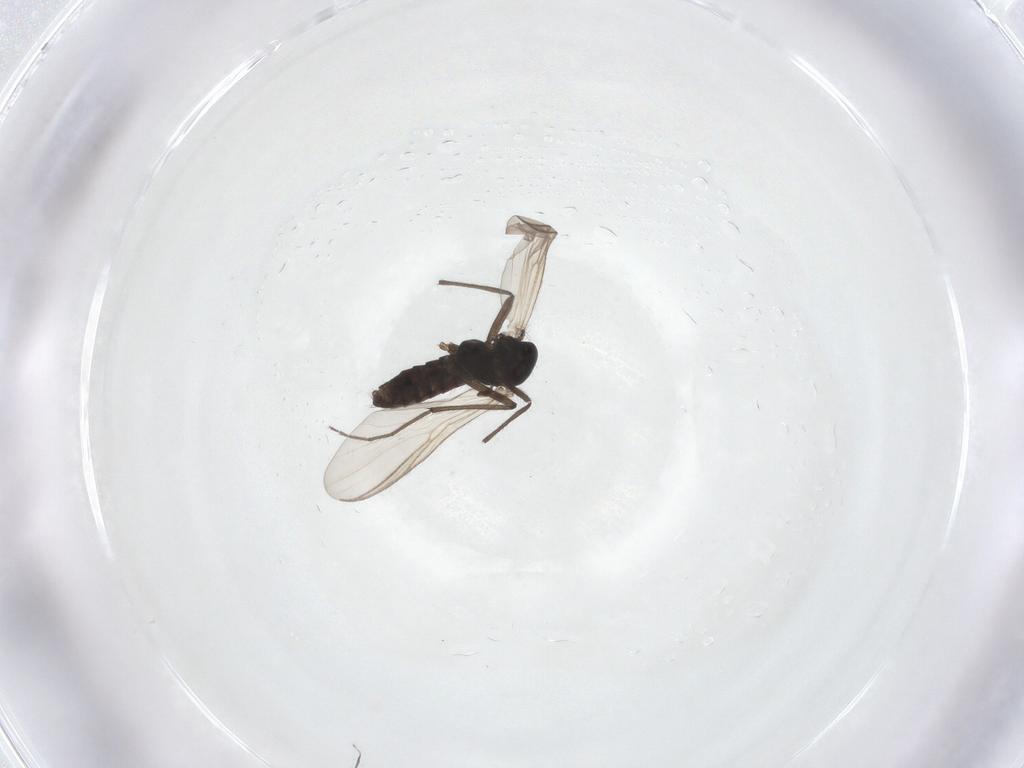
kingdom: Animalia
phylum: Arthropoda
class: Insecta
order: Diptera
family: Chironomidae
